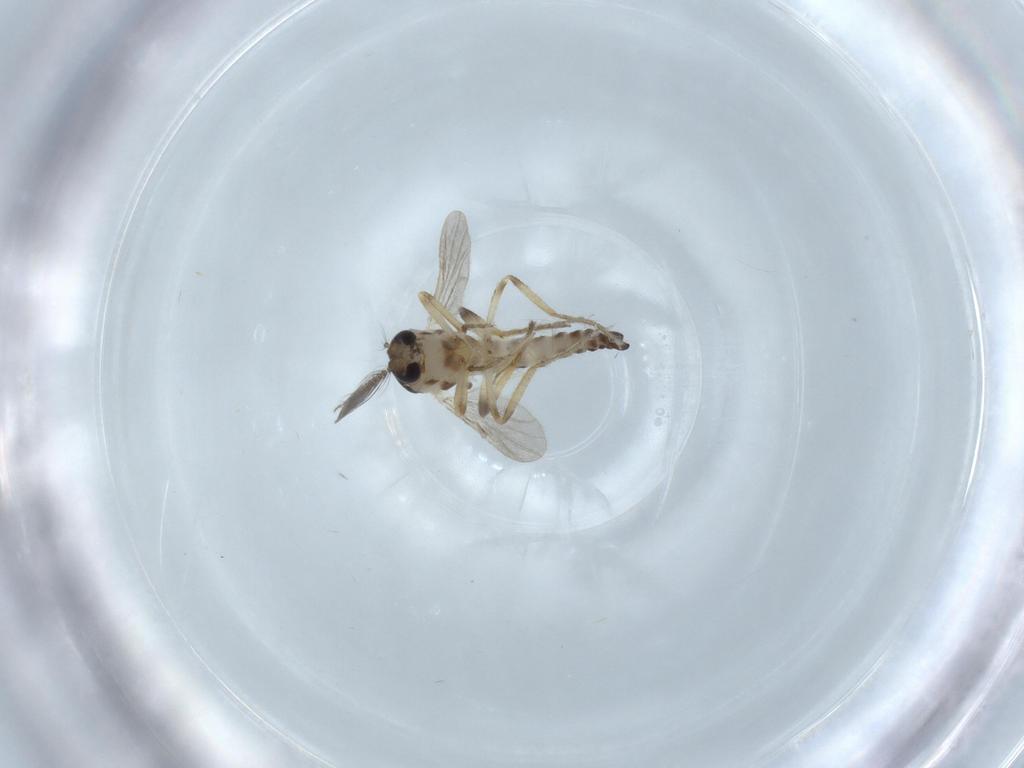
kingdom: Animalia
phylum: Arthropoda
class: Insecta
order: Diptera
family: Ceratopogonidae
